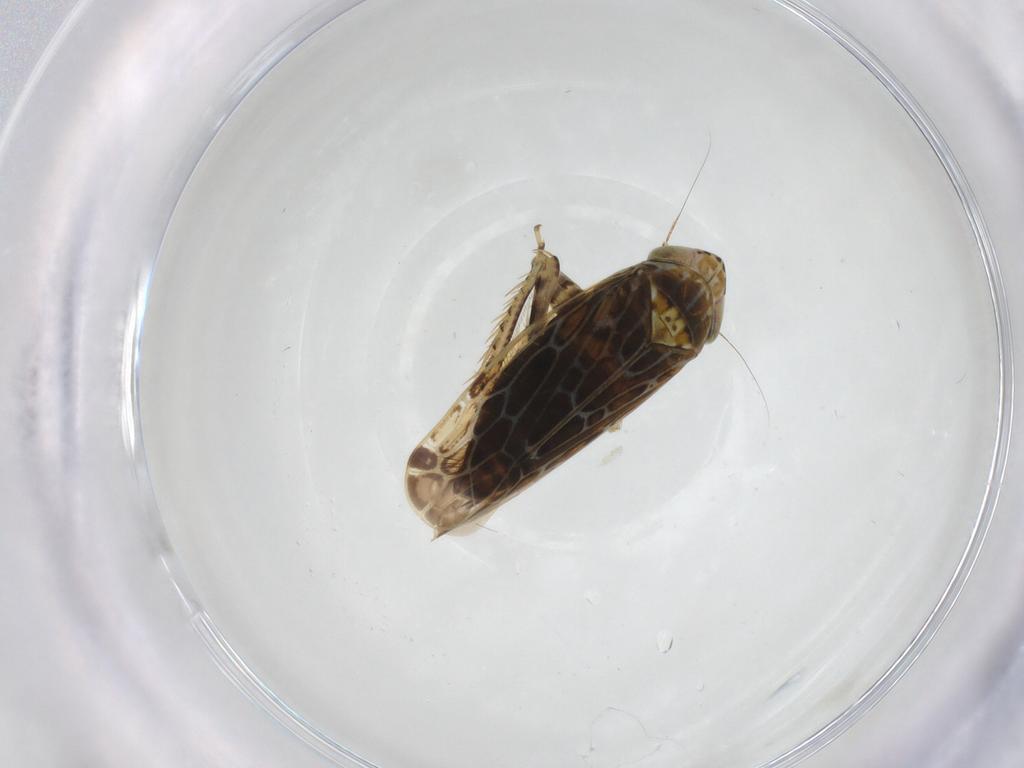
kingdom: Animalia
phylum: Arthropoda
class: Insecta
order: Hemiptera
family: Cicadellidae
